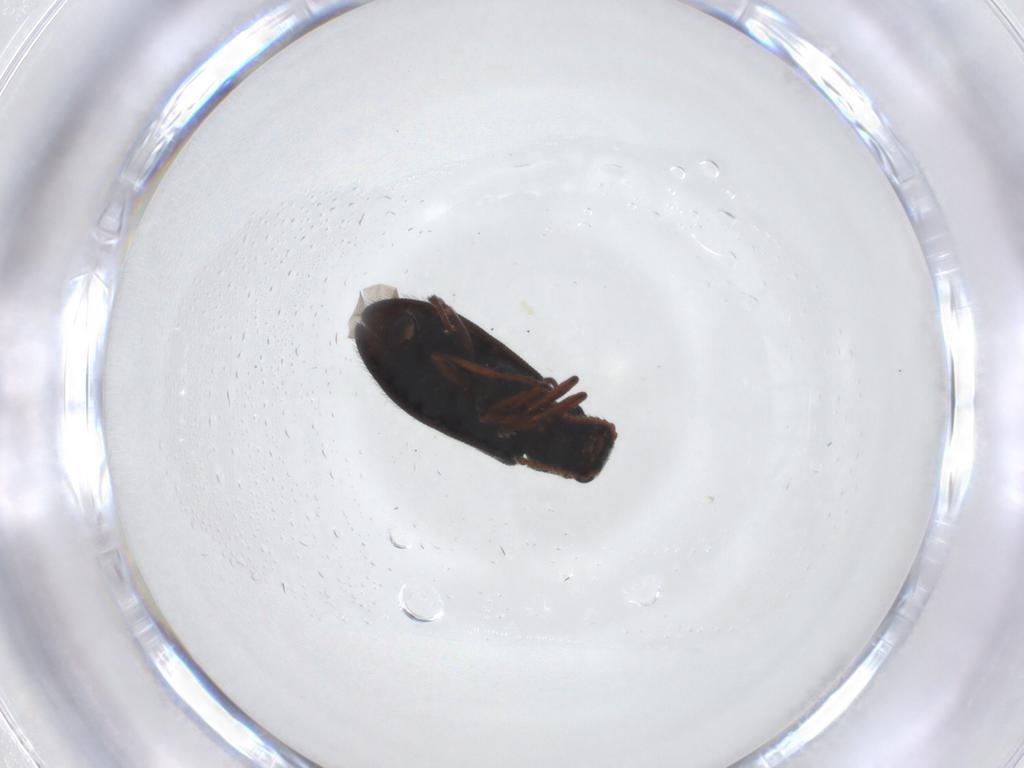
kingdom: Animalia
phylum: Arthropoda
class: Insecta
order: Coleoptera
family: Melyridae
